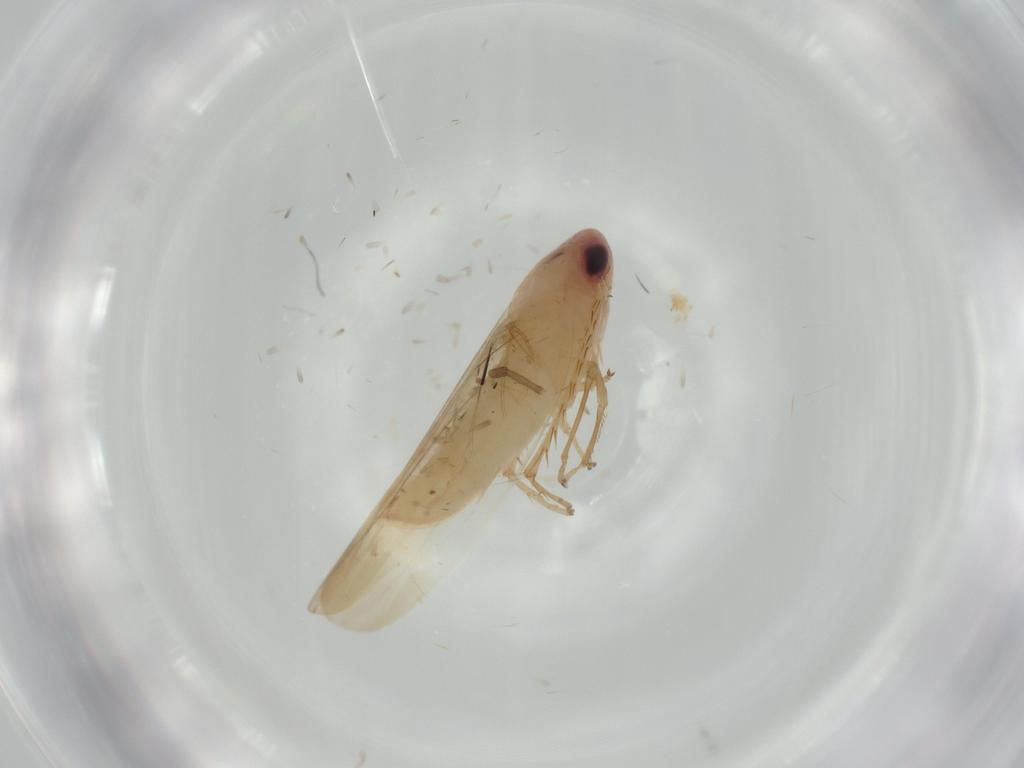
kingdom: Animalia
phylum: Arthropoda
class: Insecta
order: Hemiptera
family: Cicadellidae
